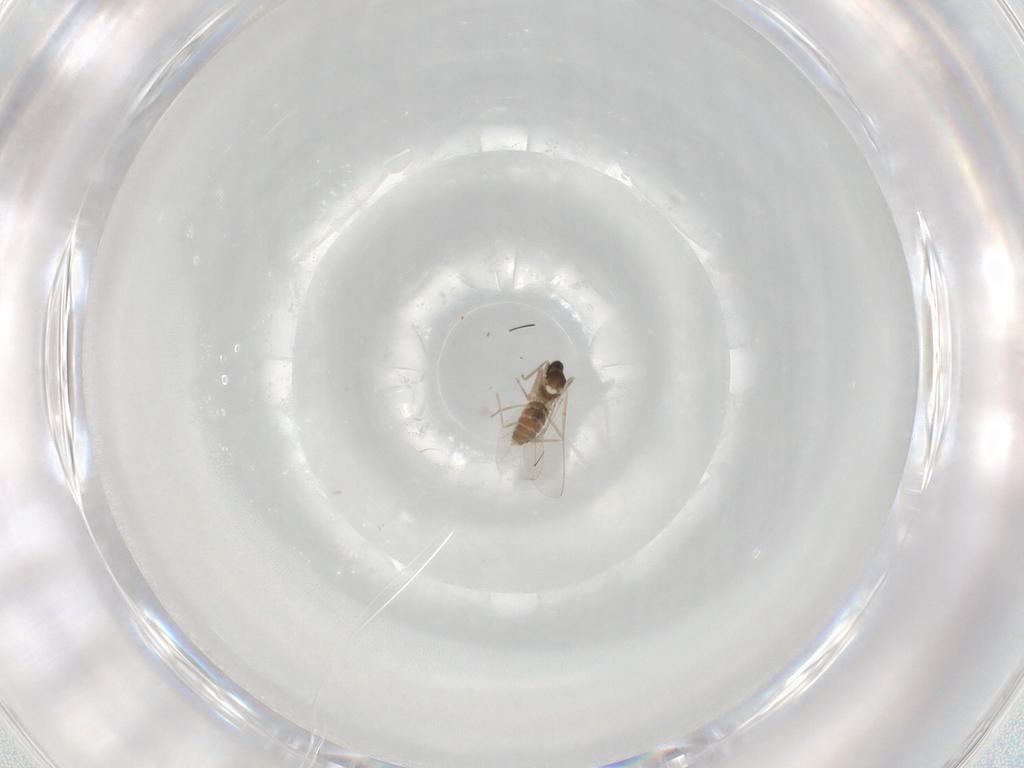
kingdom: Animalia
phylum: Arthropoda
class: Insecta
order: Diptera
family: Cecidomyiidae
